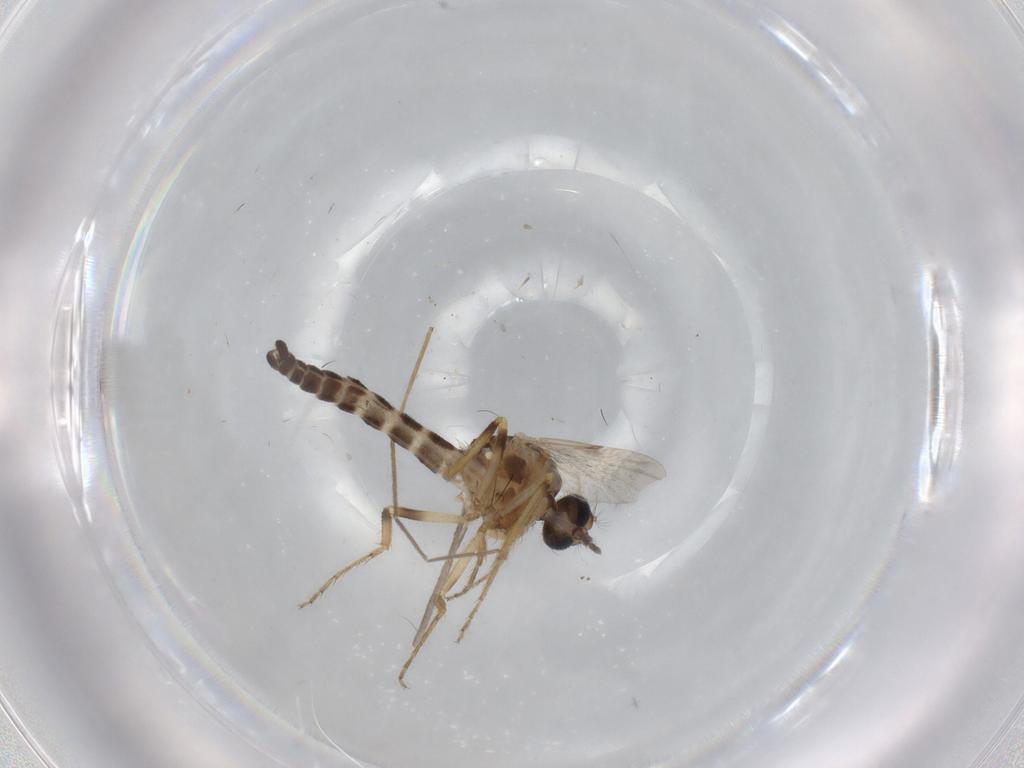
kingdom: Animalia
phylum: Arthropoda
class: Insecta
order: Diptera
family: Ceratopogonidae
